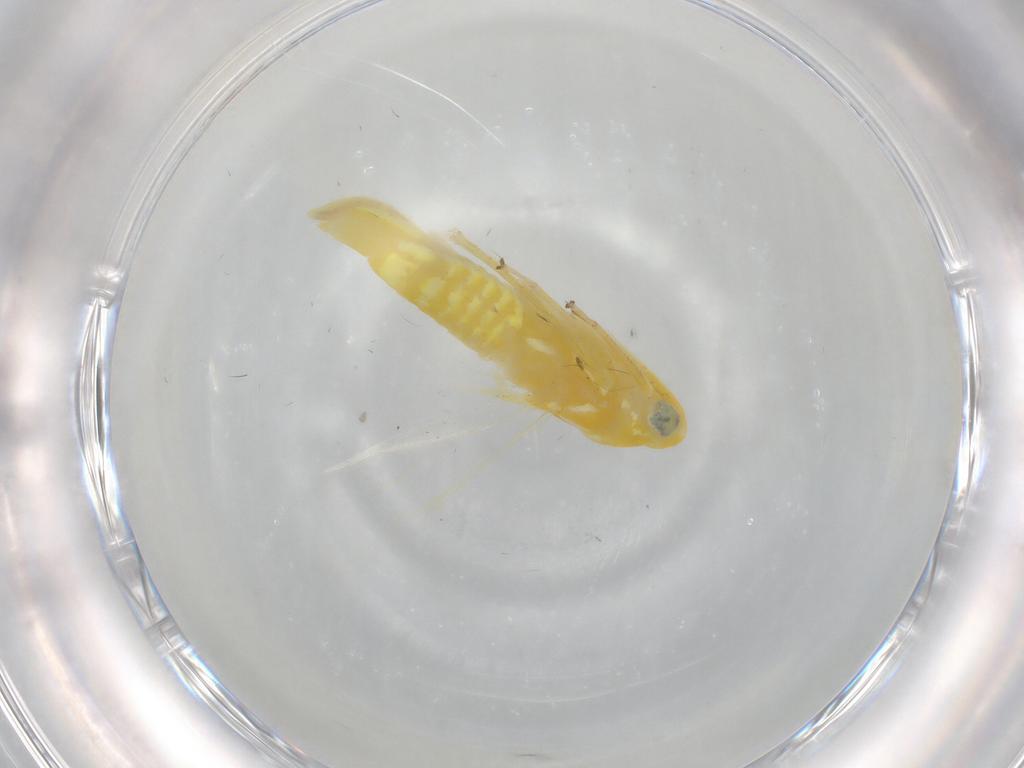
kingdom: Animalia
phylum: Arthropoda
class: Insecta
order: Hemiptera
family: Cicadellidae
